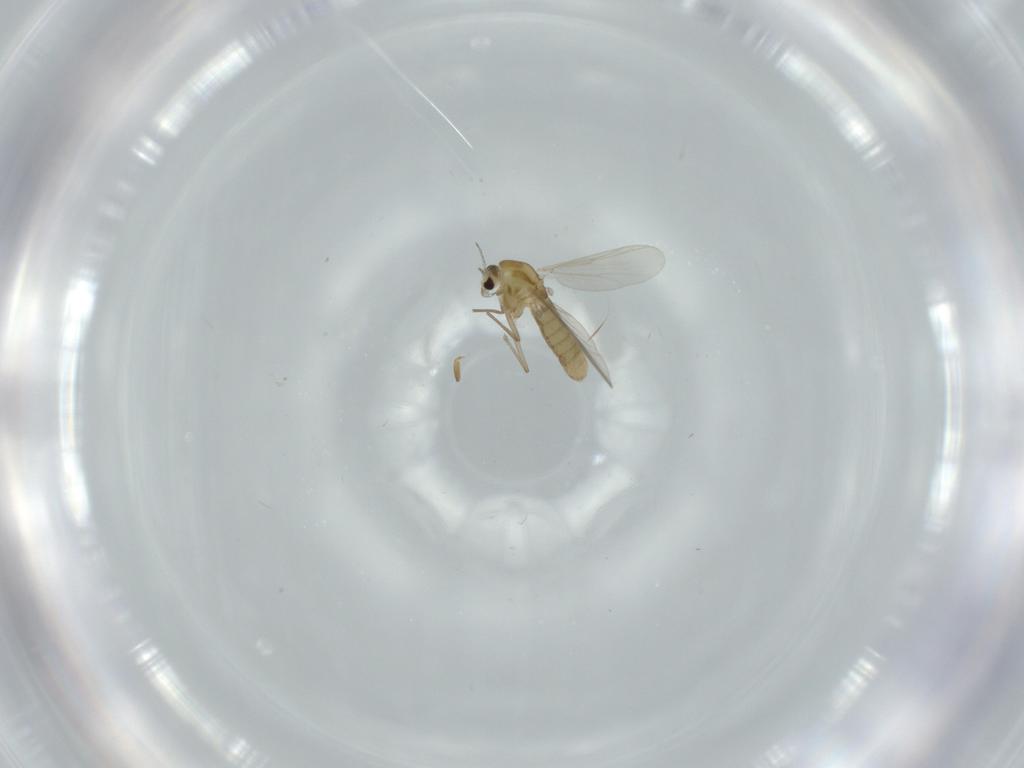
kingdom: Animalia
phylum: Arthropoda
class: Insecta
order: Diptera
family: Chironomidae
